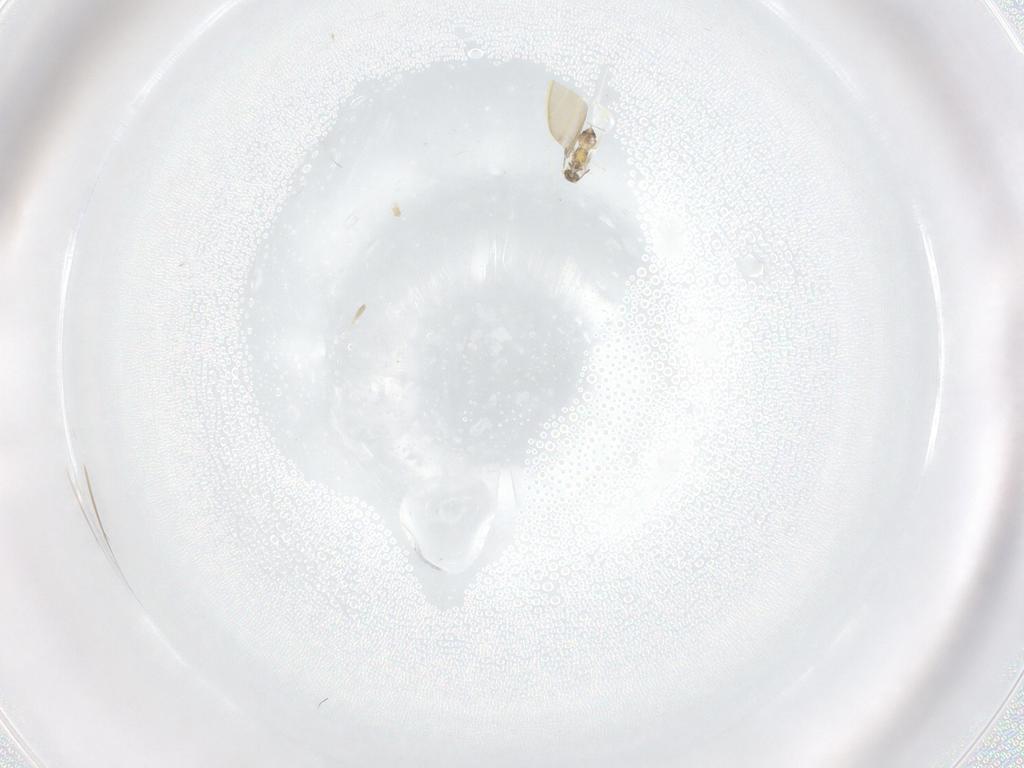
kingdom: Animalia
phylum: Arthropoda
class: Insecta
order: Hymenoptera
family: Mymaridae
